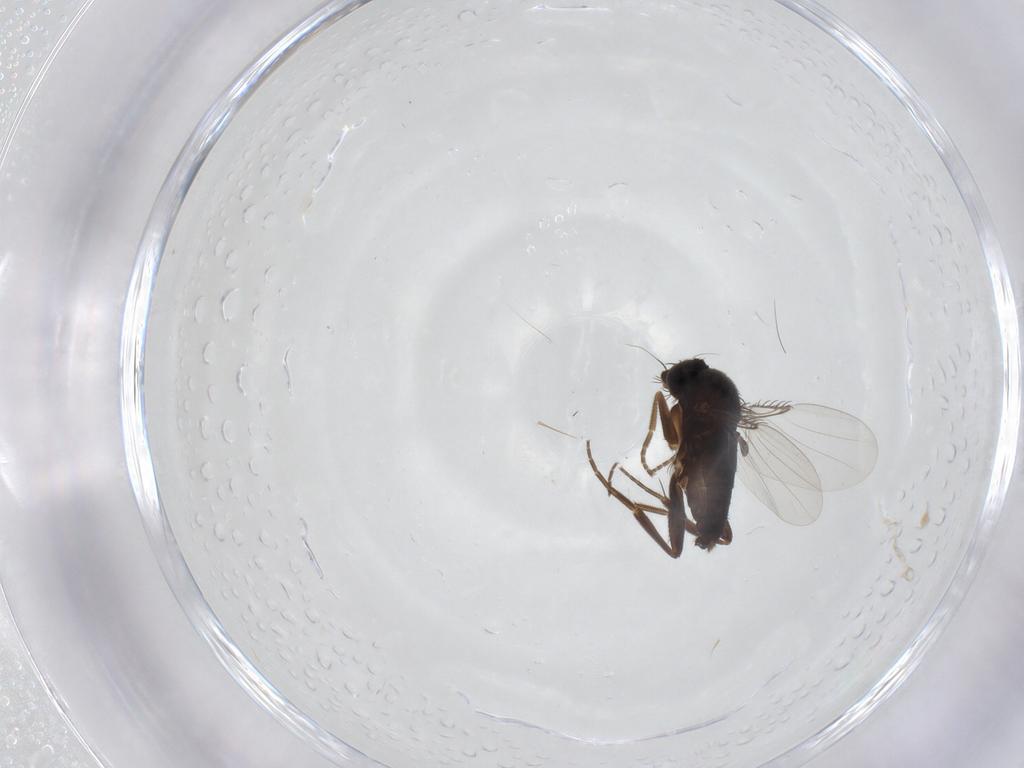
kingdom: Animalia
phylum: Arthropoda
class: Insecta
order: Diptera
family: Phoridae
